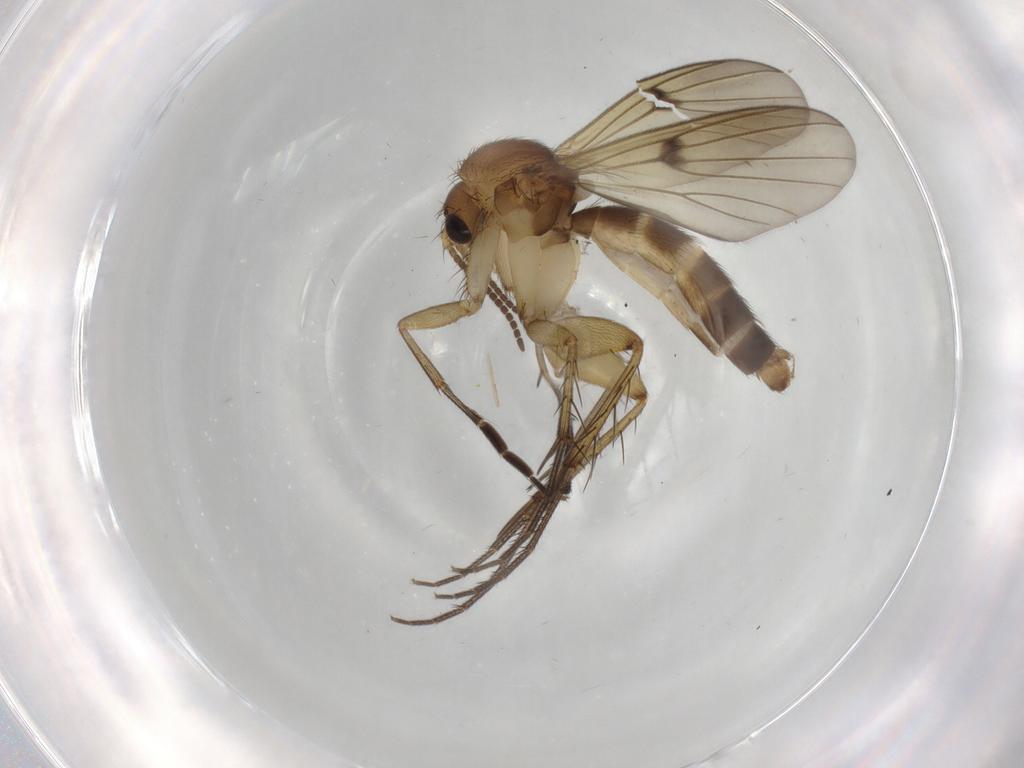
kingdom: Animalia
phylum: Arthropoda
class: Insecta
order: Diptera
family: Mycetophilidae
